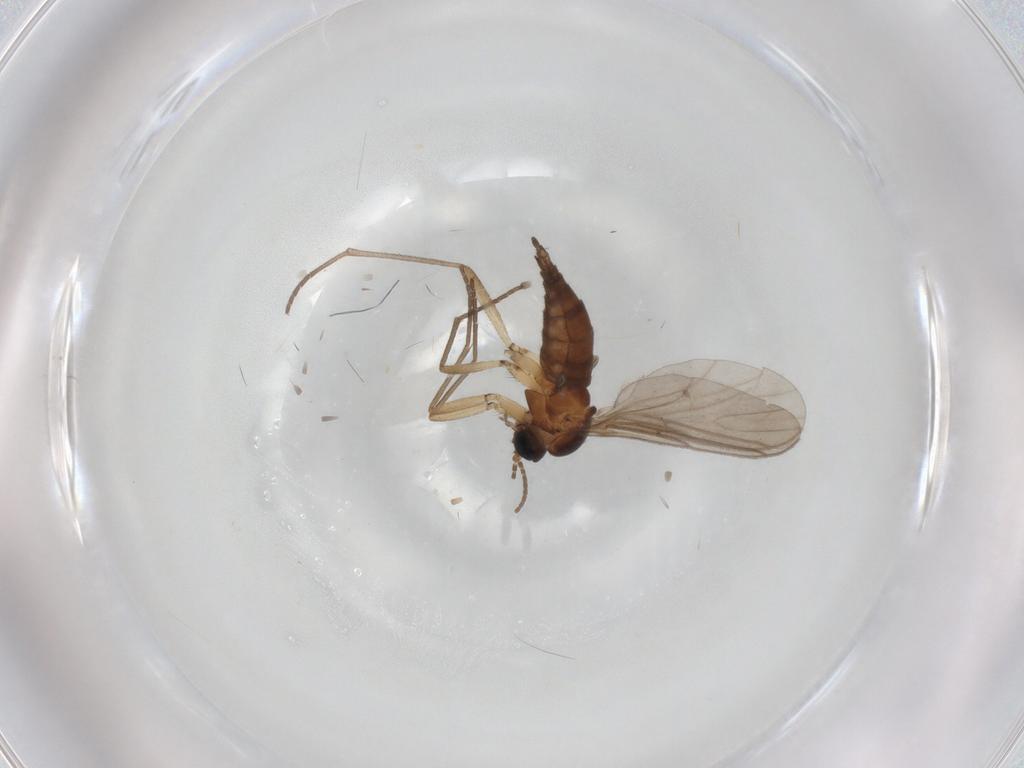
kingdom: Animalia
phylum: Arthropoda
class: Insecta
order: Diptera
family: Sciaridae
